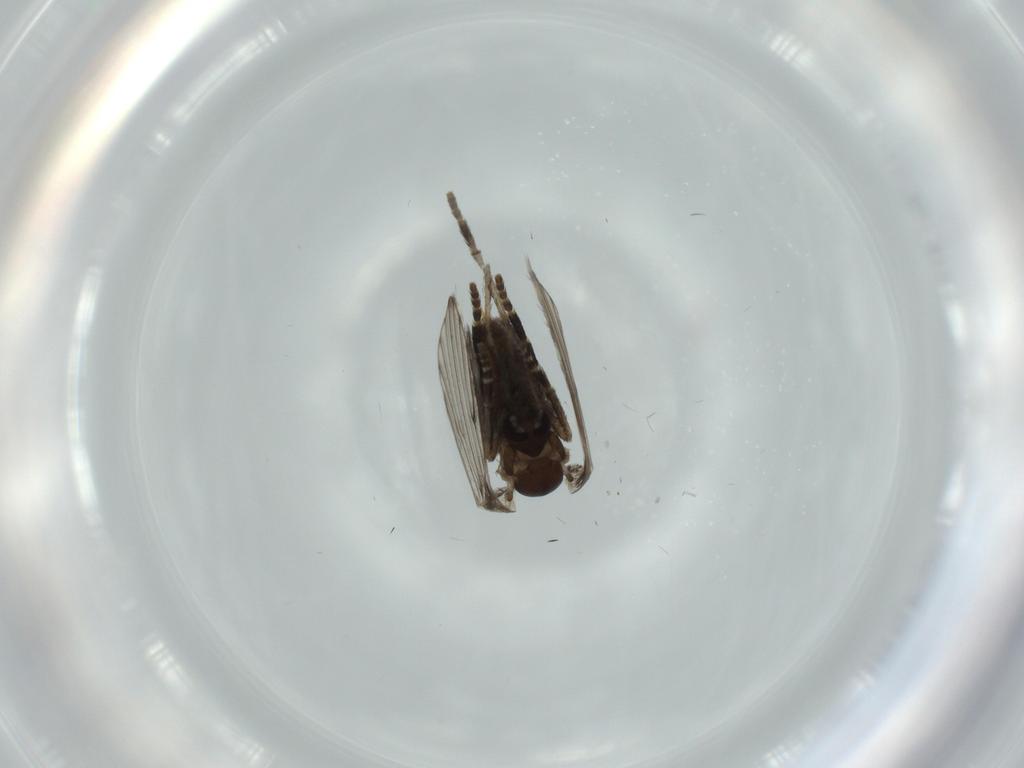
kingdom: Animalia
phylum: Arthropoda
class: Insecta
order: Diptera
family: Psychodidae
